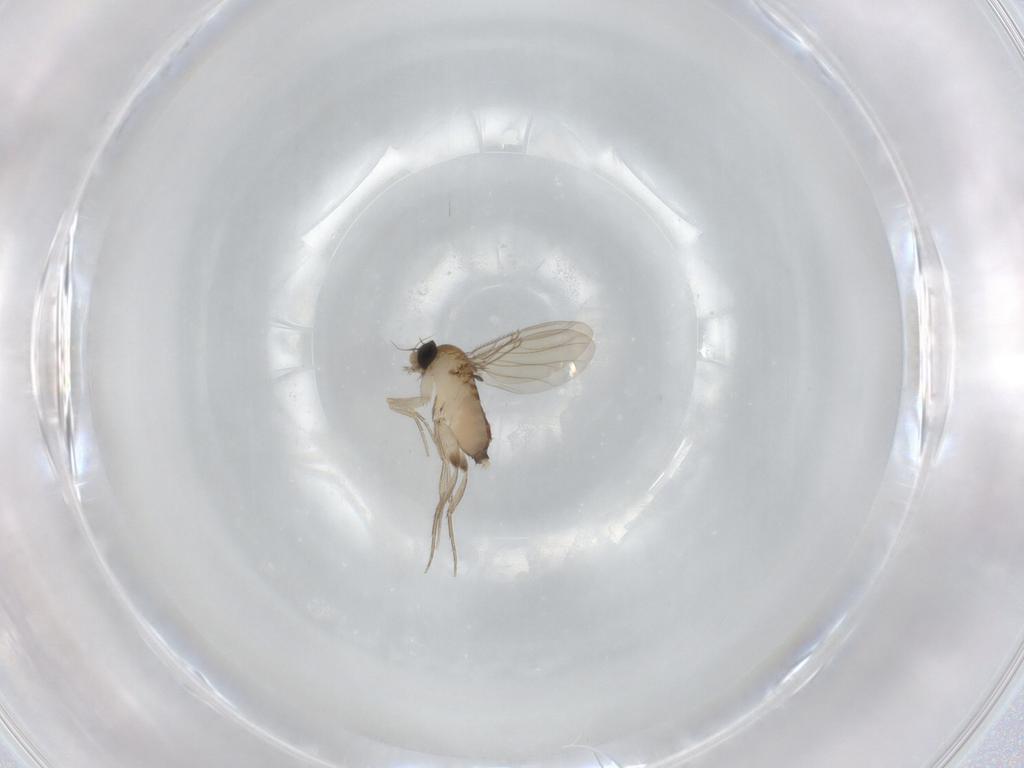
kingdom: Animalia
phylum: Arthropoda
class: Insecta
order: Diptera
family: Phoridae
